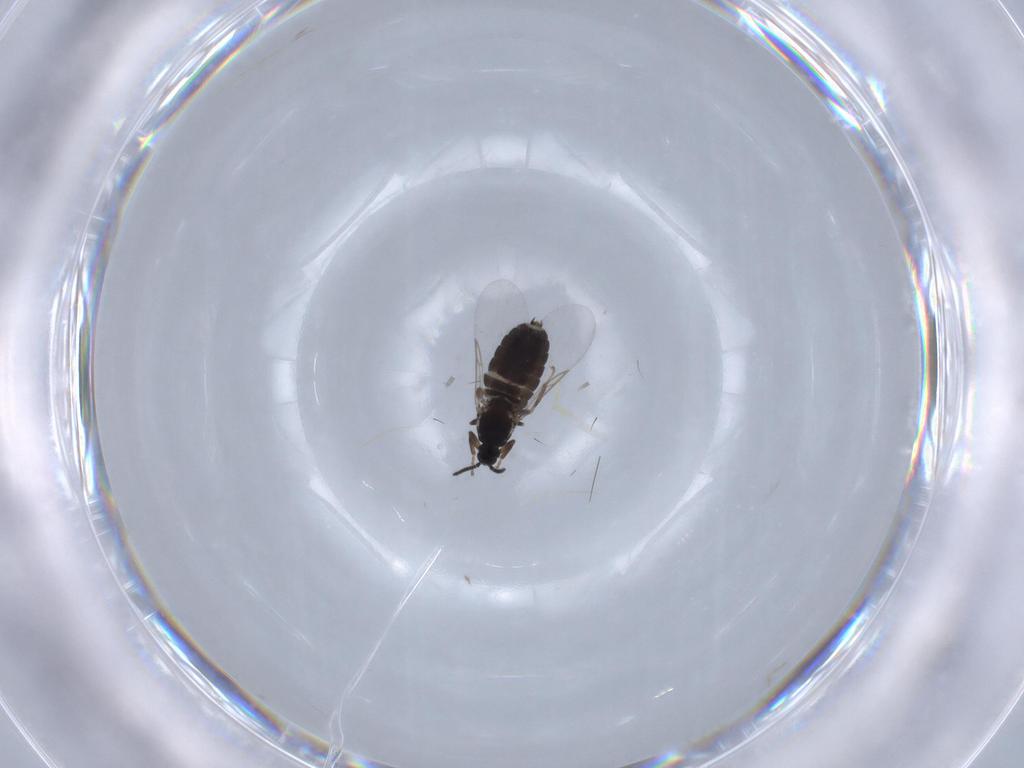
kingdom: Animalia
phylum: Arthropoda
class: Insecta
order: Diptera
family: Scatopsidae
